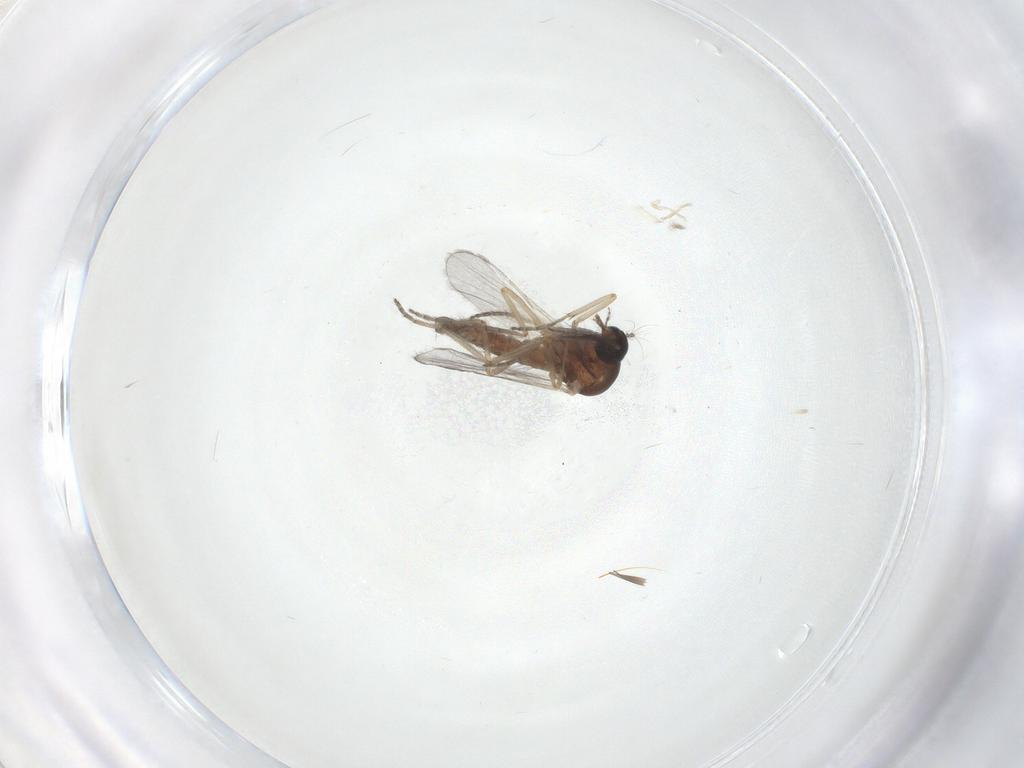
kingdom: Animalia
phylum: Arthropoda
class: Insecta
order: Diptera
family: Ceratopogonidae
